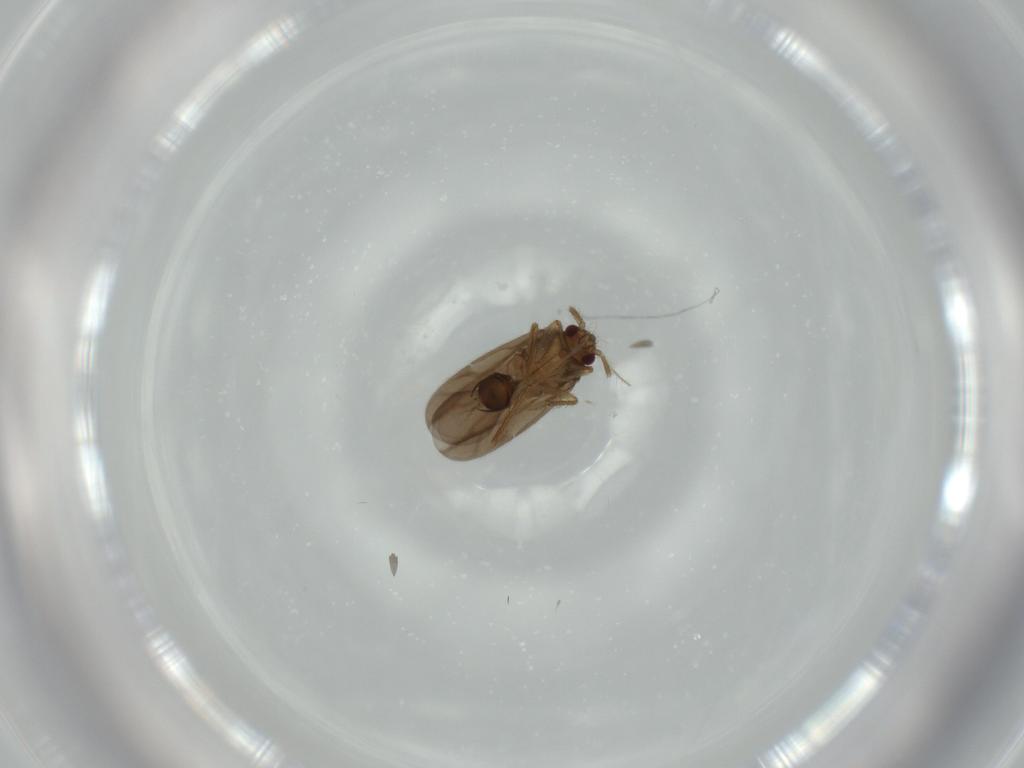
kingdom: Animalia
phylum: Arthropoda
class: Insecta
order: Hemiptera
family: Ceratocombidae
